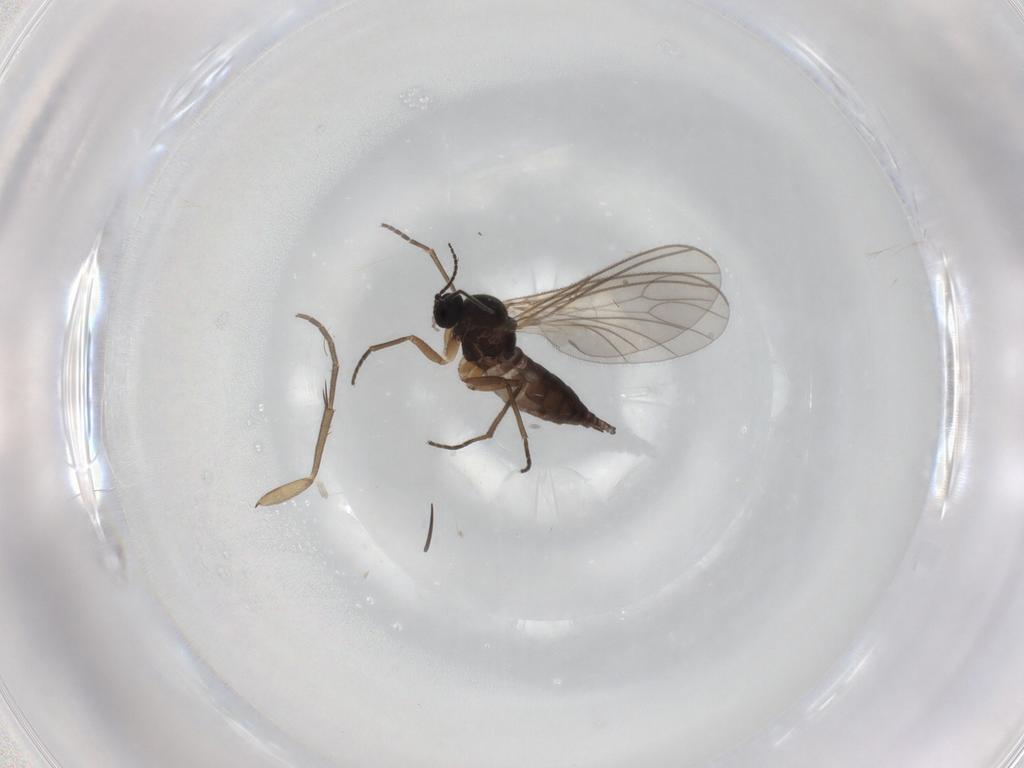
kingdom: Animalia
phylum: Arthropoda
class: Insecta
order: Diptera
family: Sciaridae
